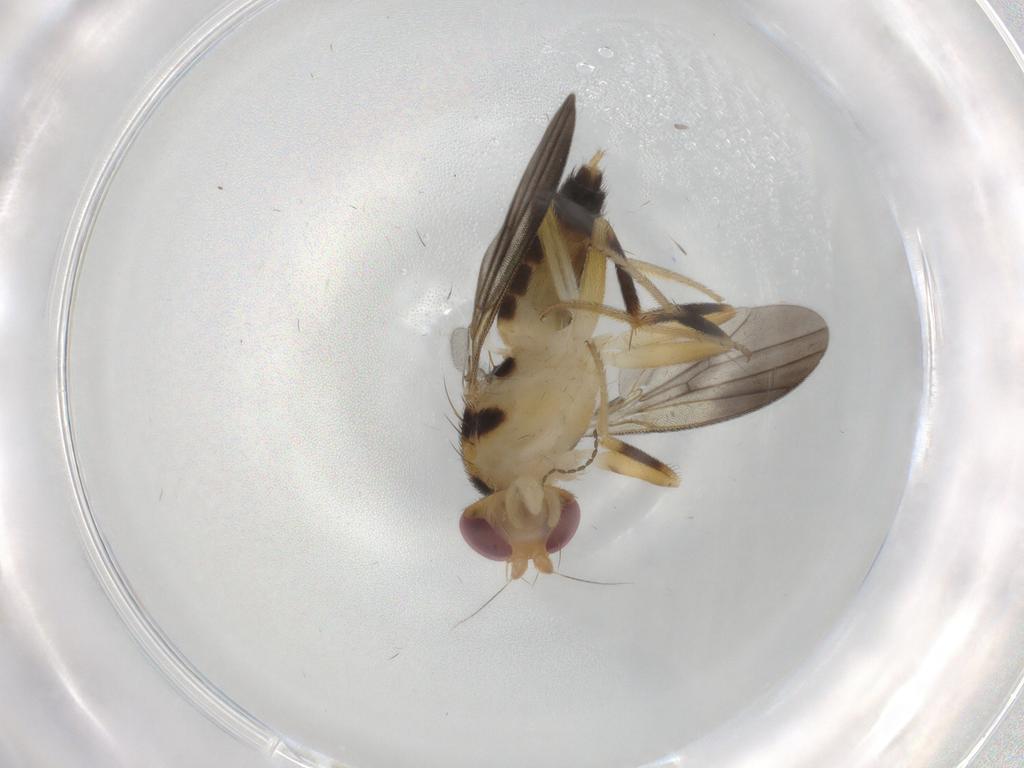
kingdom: Animalia
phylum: Arthropoda
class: Insecta
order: Diptera
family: Clusiidae
